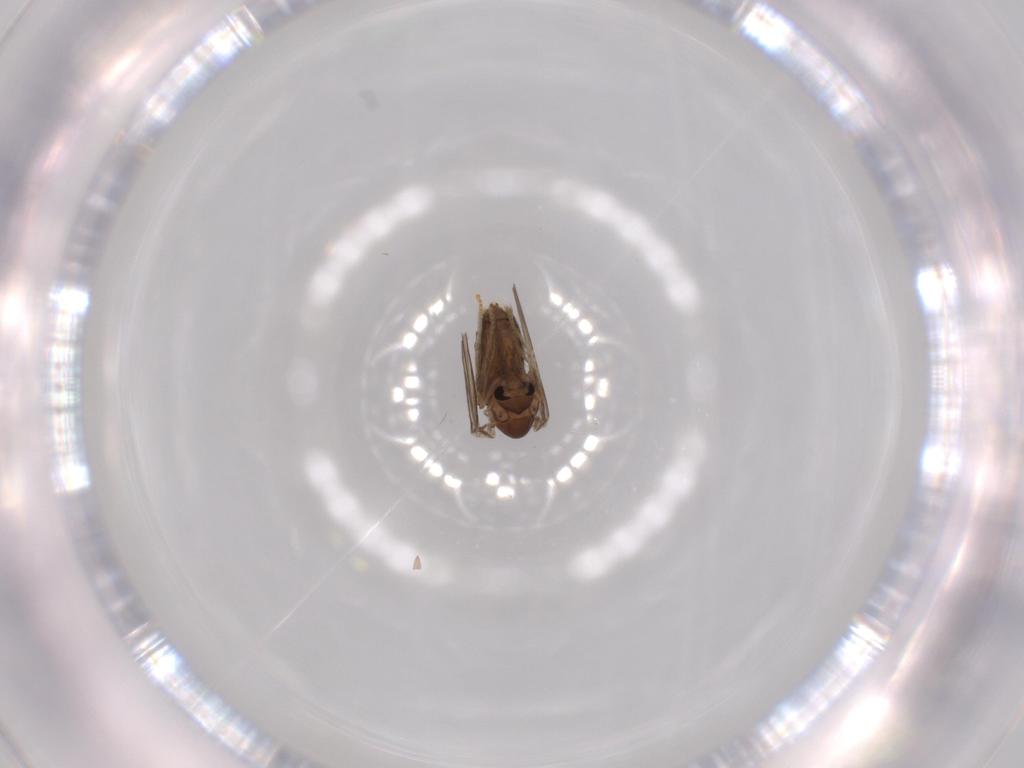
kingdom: Animalia
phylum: Arthropoda
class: Insecta
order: Diptera
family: Psychodidae
